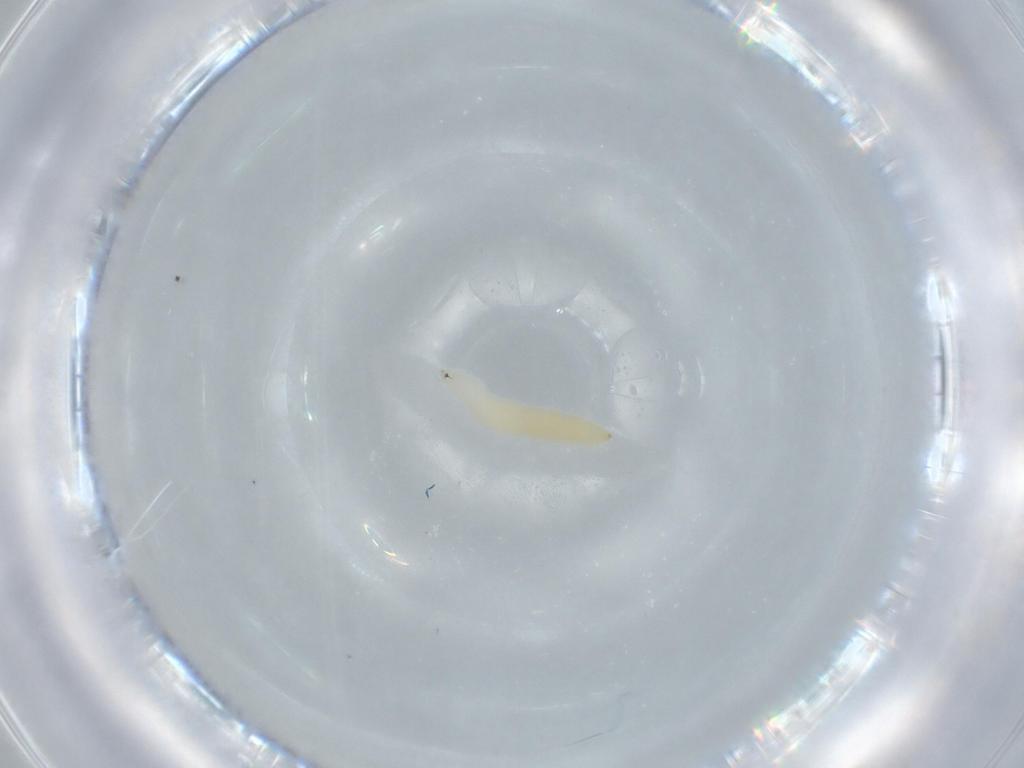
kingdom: Animalia
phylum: Arthropoda
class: Insecta
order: Diptera
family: Cecidomyiidae
